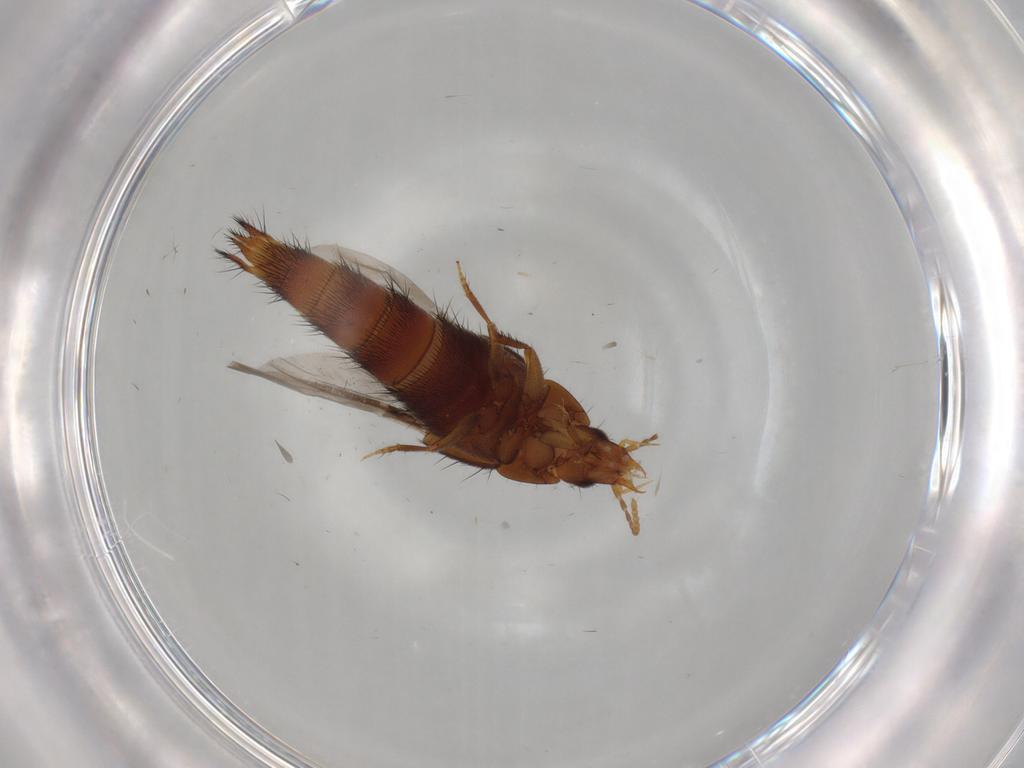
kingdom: Animalia
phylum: Arthropoda
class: Insecta
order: Coleoptera
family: Staphylinidae
